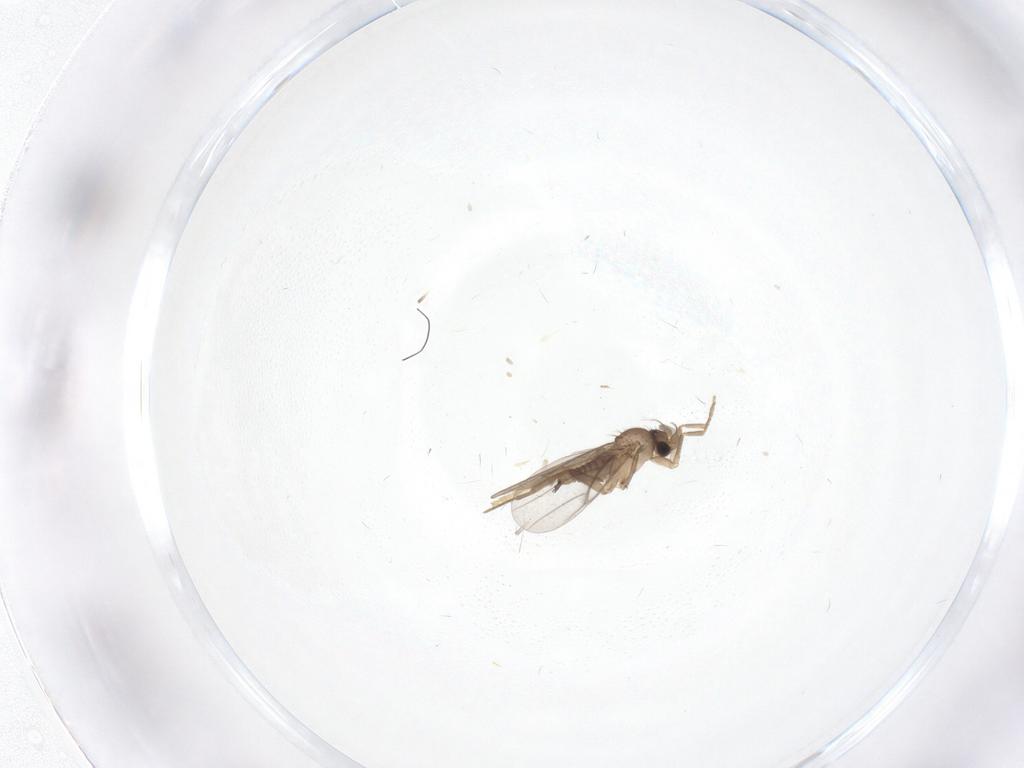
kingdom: Animalia
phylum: Arthropoda
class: Insecta
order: Diptera
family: Chironomidae
